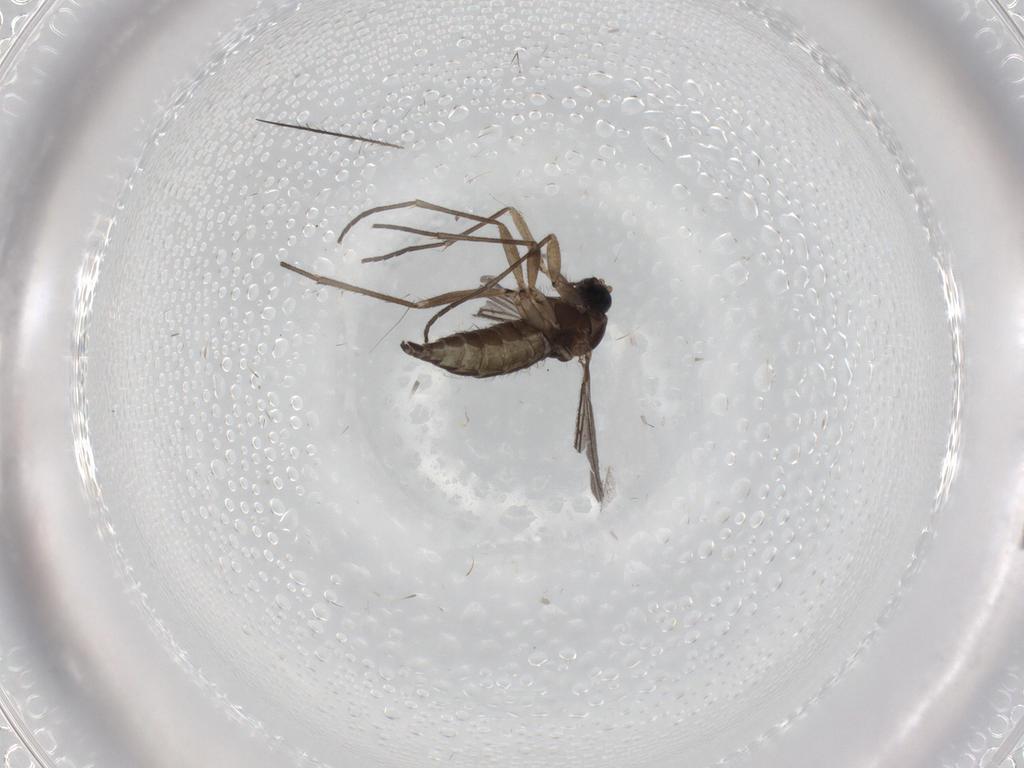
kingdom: Animalia
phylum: Arthropoda
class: Insecta
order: Diptera
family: Sciaridae
